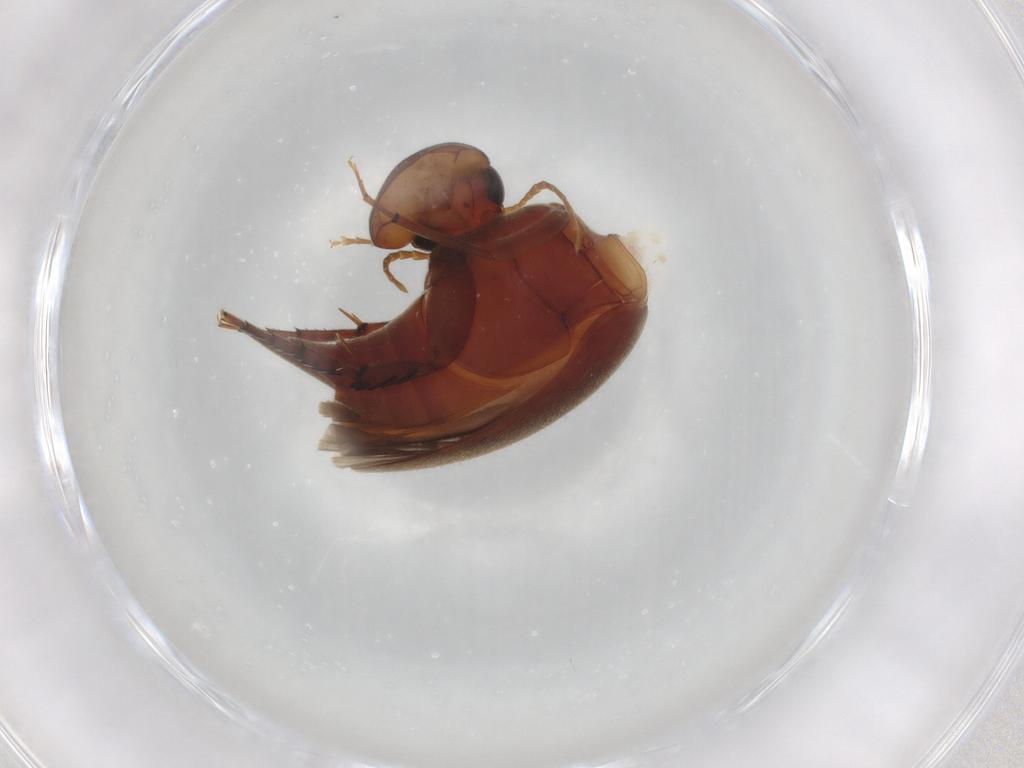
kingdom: Animalia
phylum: Arthropoda
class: Insecta
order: Coleoptera
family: Mordellidae
